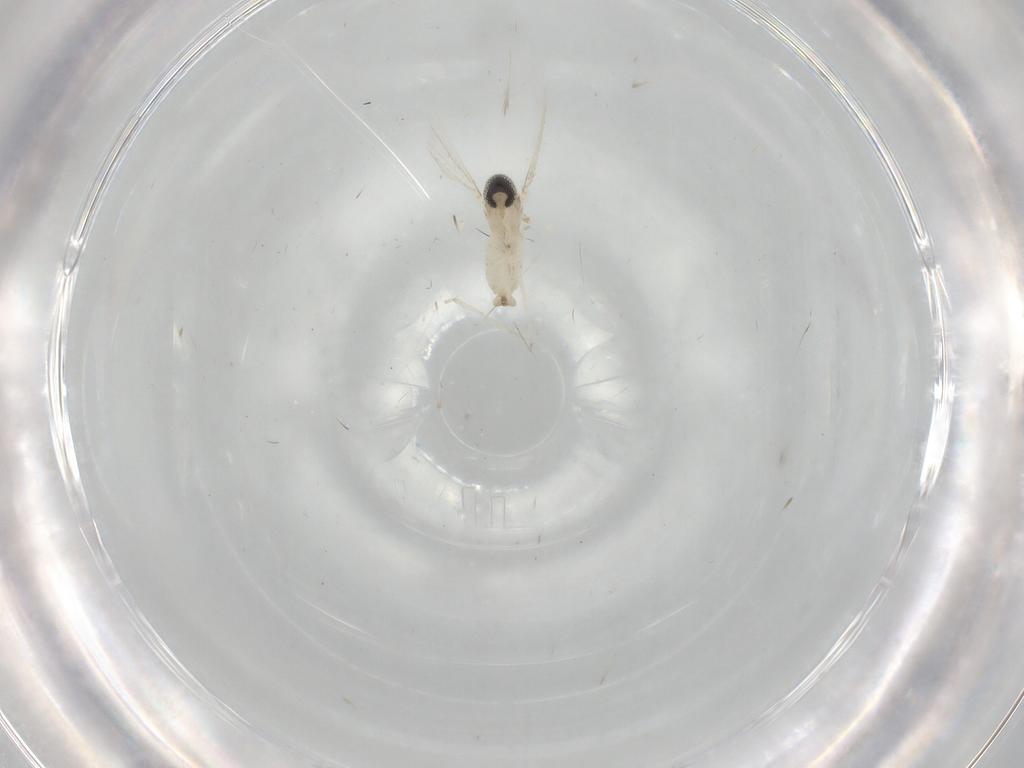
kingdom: Animalia
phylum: Arthropoda
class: Insecta
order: Diptera
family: Cecidomyiidae
